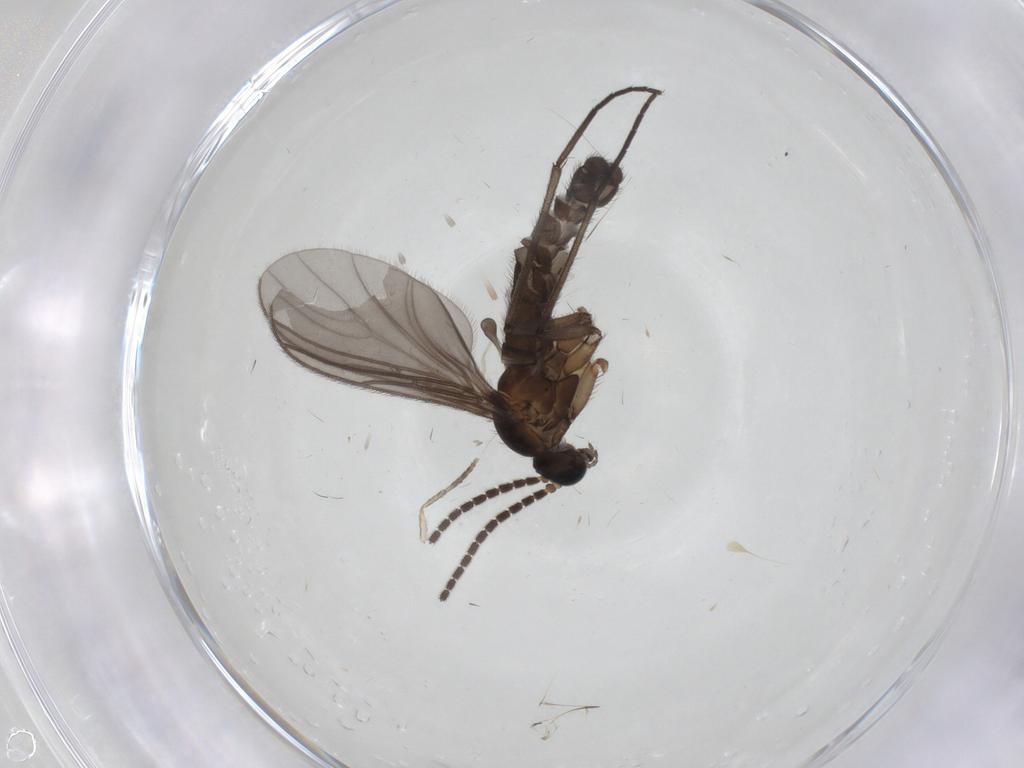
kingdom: Animalia
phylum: Arthropoda
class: Insecta
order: Diptera
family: Sciaridae
